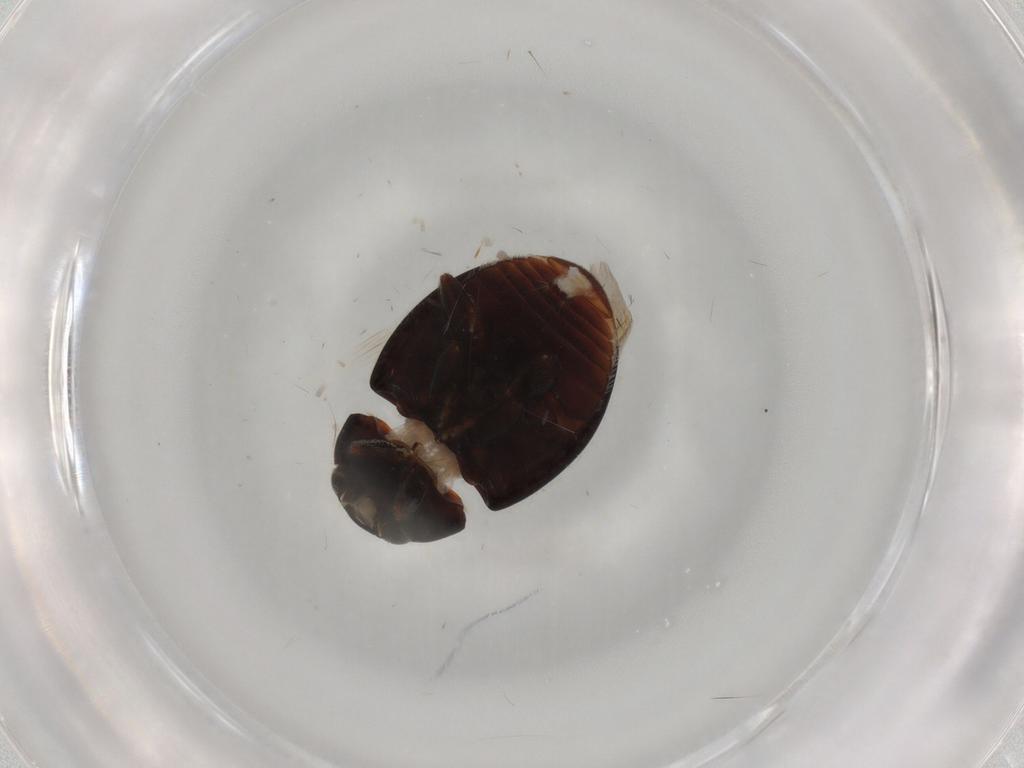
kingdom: Animalia
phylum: Arthropoda
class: Insecta
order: Coleoptera
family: Coccinellidae
